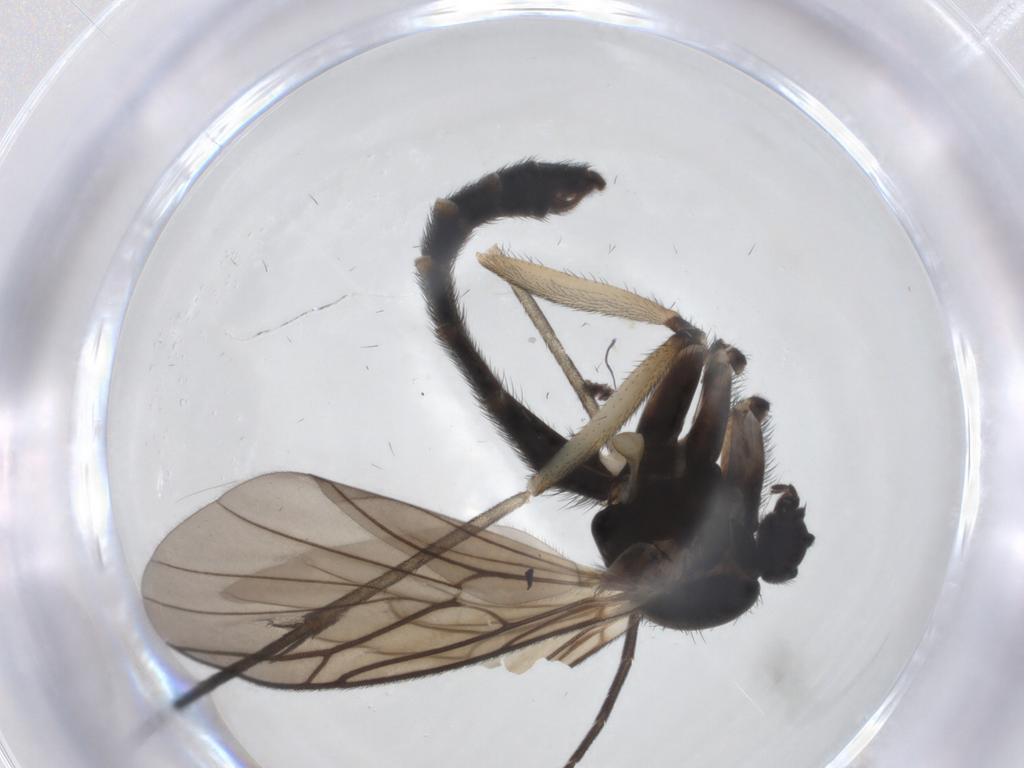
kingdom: Animalia
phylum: Arthropoda
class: Insecta
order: Diptera
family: Keroplatidae
